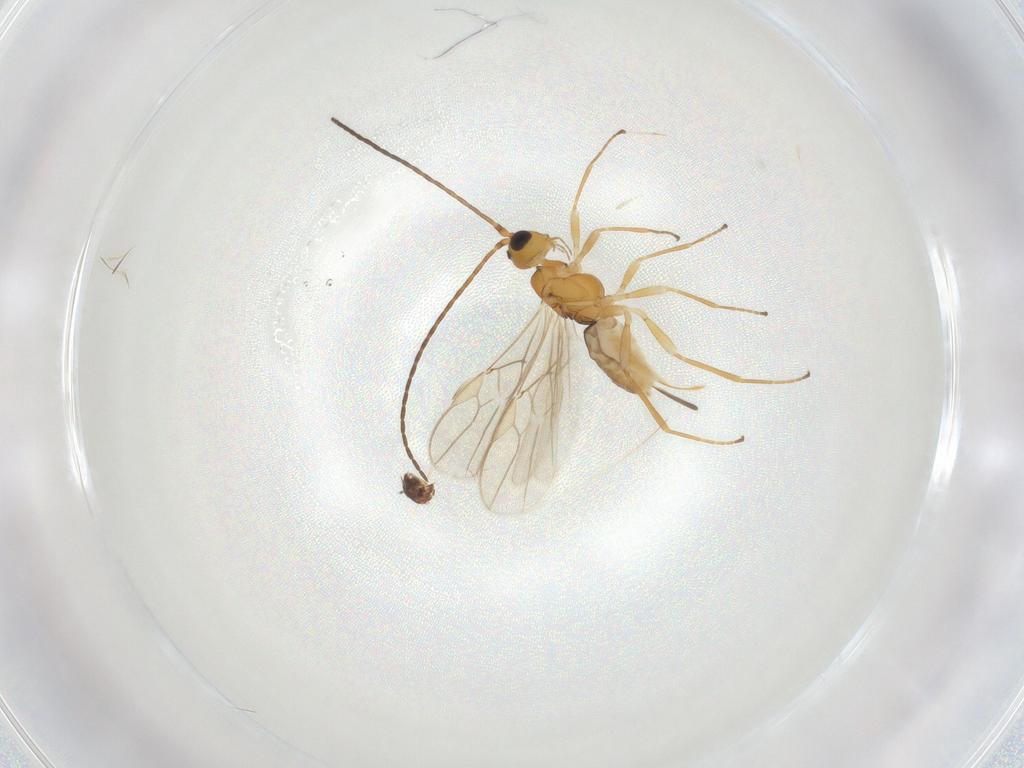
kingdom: Animalia
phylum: Arthropoda
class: Insecta
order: Hymenoptera
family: Braconidae
